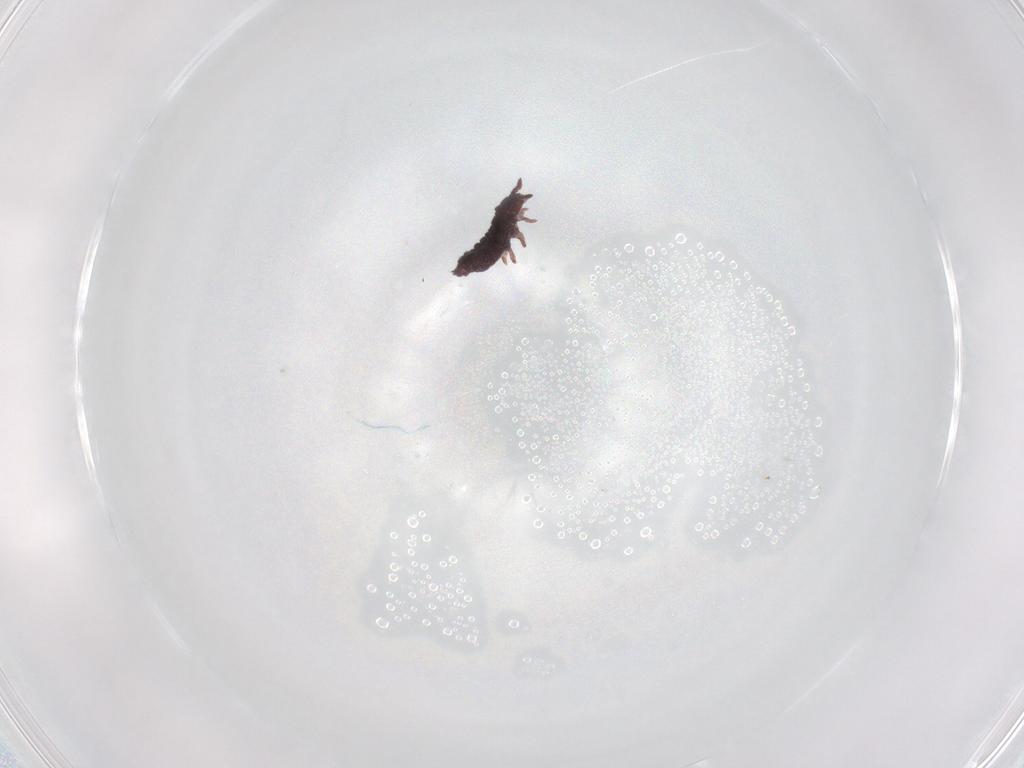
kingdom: Animalia
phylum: Arthropoda
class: Collembola
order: Poduromorpha
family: Hypogastruridae
